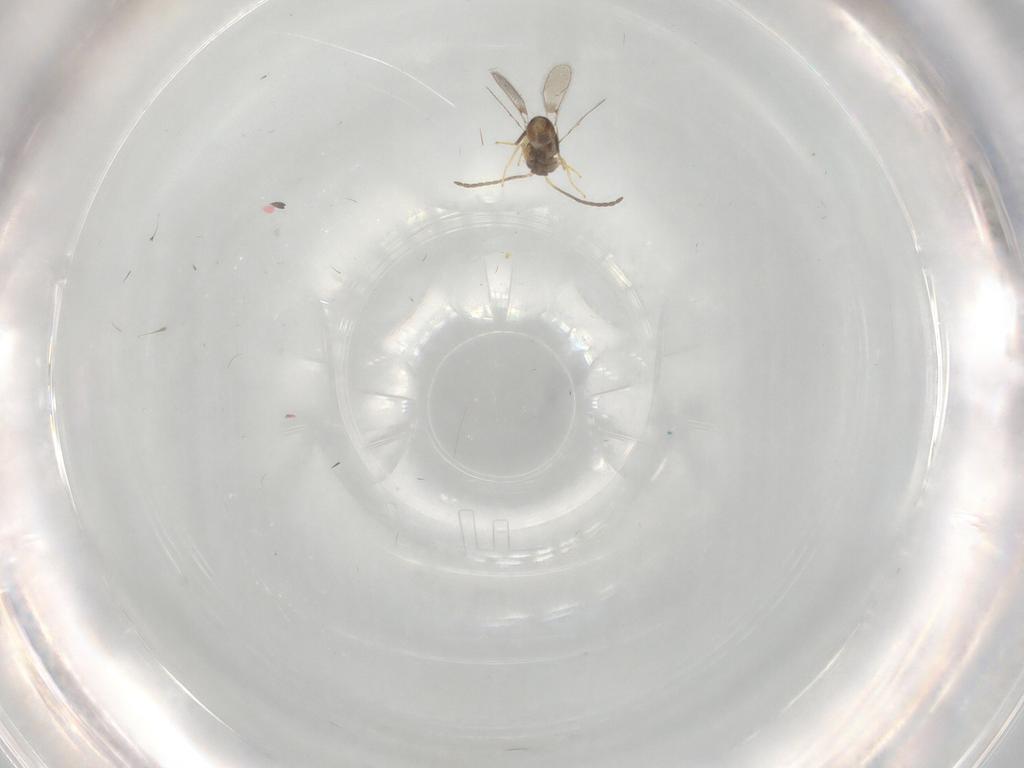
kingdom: Animalia
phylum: Arthropoda
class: Insecta
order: Hymenoptera
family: Mymaridae
